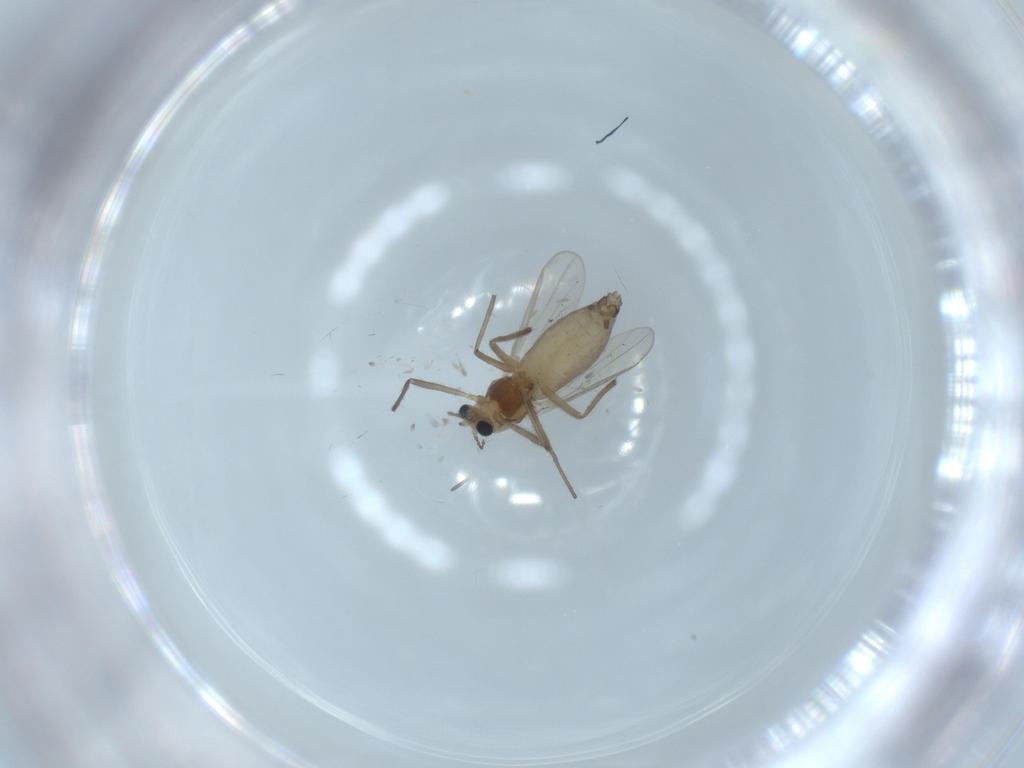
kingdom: Animalia
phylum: Arthropoda
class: Insecta
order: Diptera
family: Chironomidae
